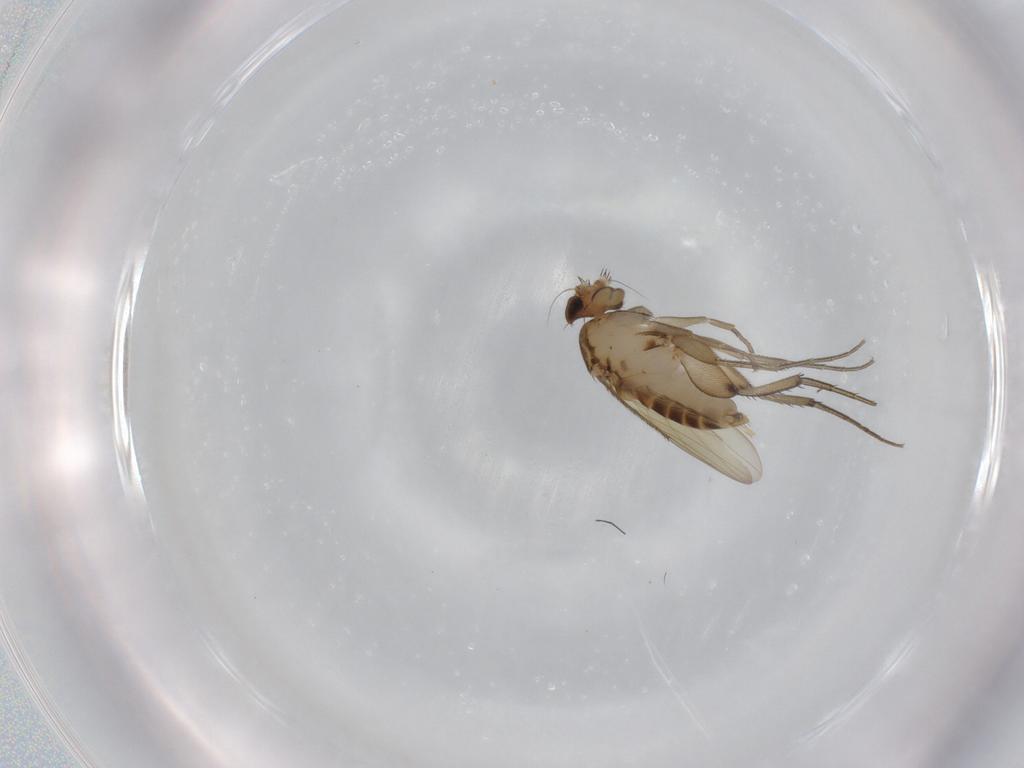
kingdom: Animalia
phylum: Arthropoda
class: Insecta
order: Diptera
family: Phoridae
